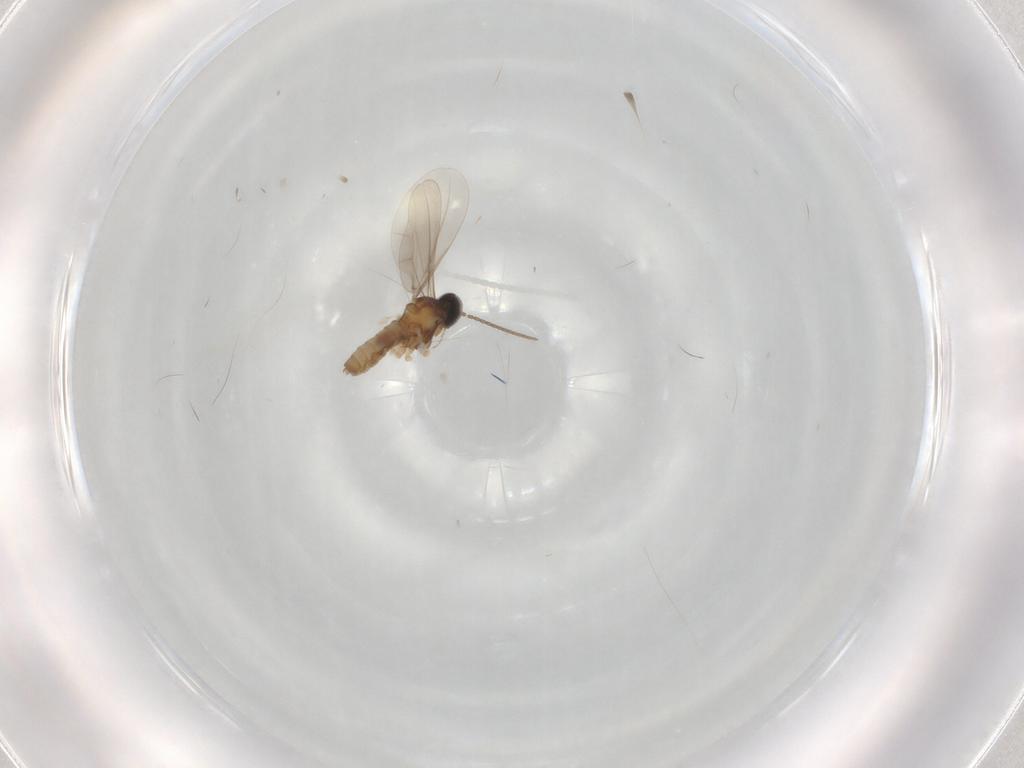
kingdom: Animalia
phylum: Arthropoda
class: Insecta
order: Diptera
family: Cecidomyiidae
